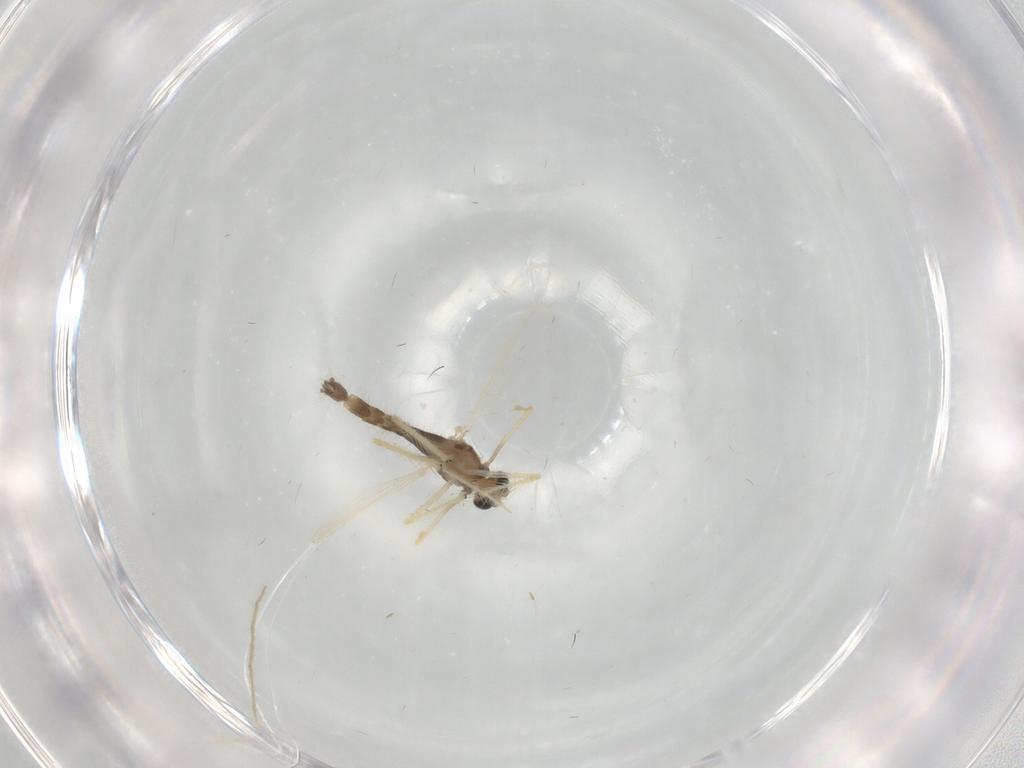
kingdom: Animalia
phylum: Arthropoda
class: Insecta
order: Diptera
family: Chironomidae
